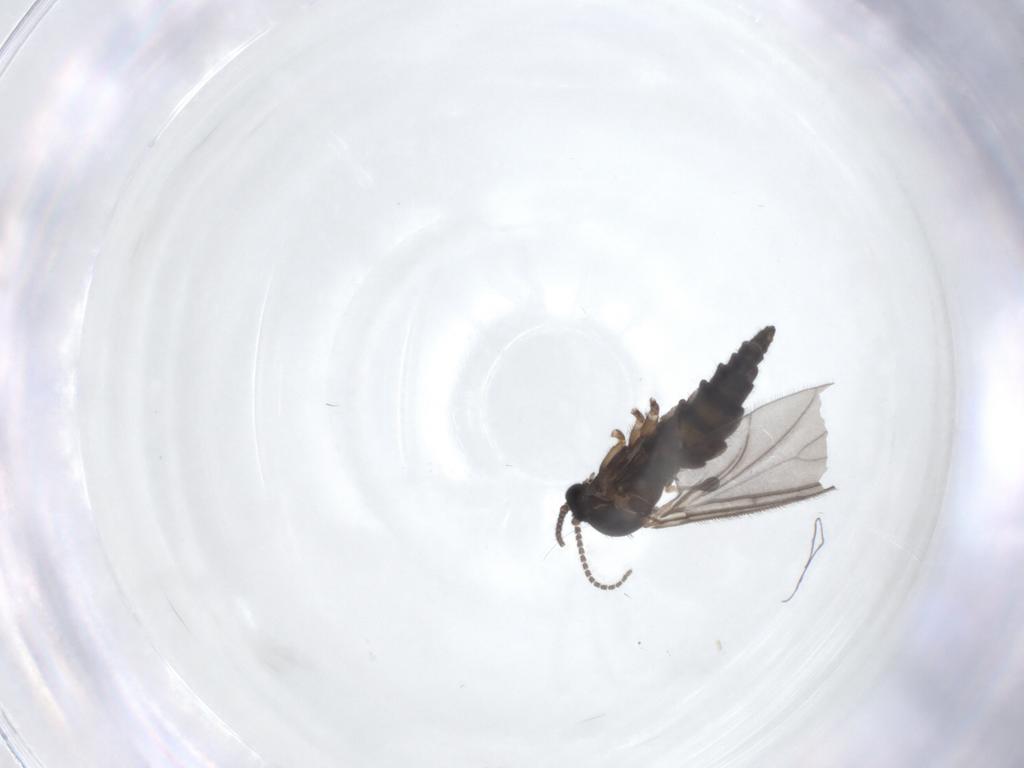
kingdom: Animalia
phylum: Arthropoda
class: Insecta
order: Diptera
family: Sciaridae
